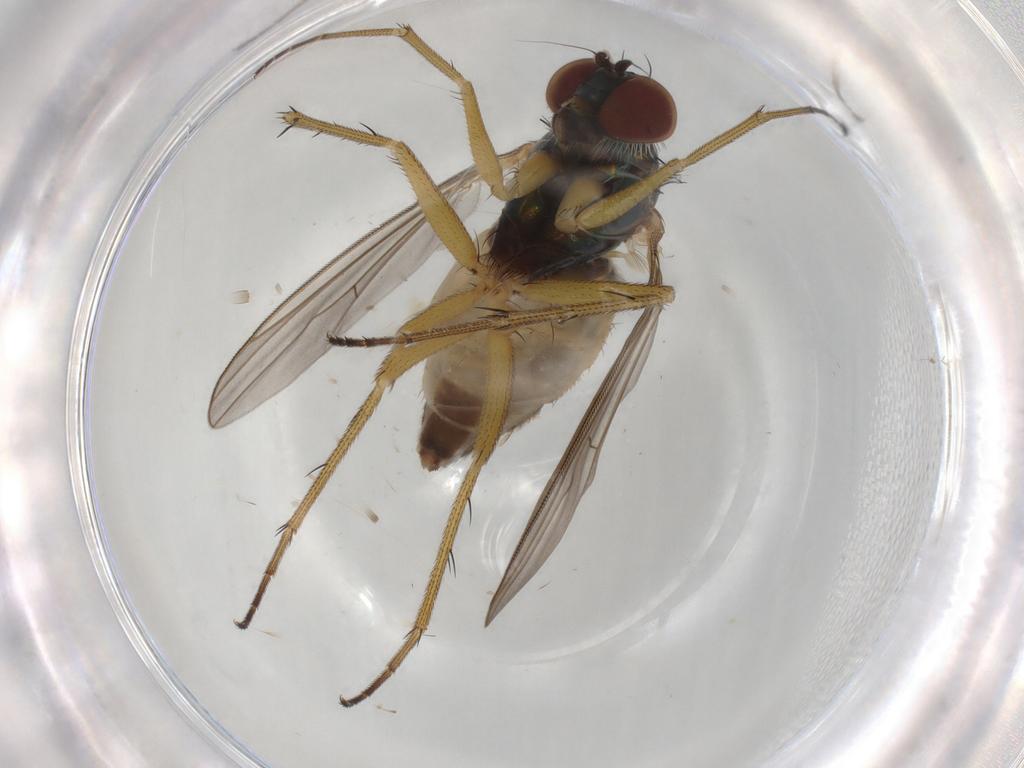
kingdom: Animalia
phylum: Arthropoda
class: Insecta
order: Diptera
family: Dolichopodidae
